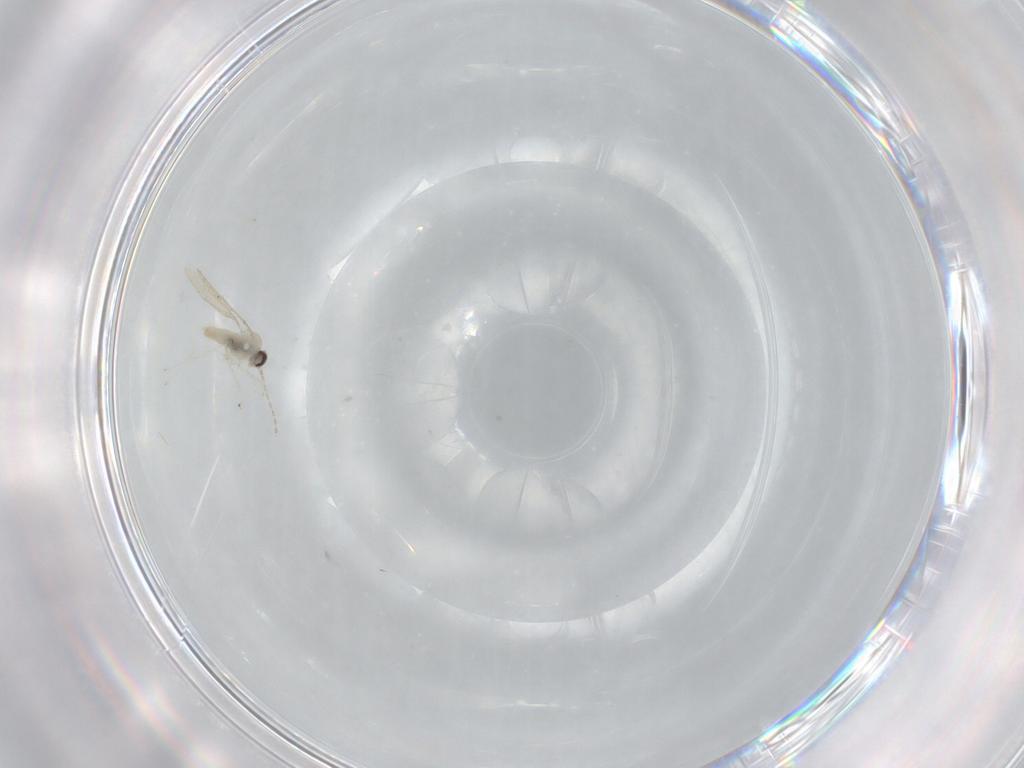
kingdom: Animalia
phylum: Arthropoda
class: Insecta
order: Diptera
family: Cecidomyiidae
